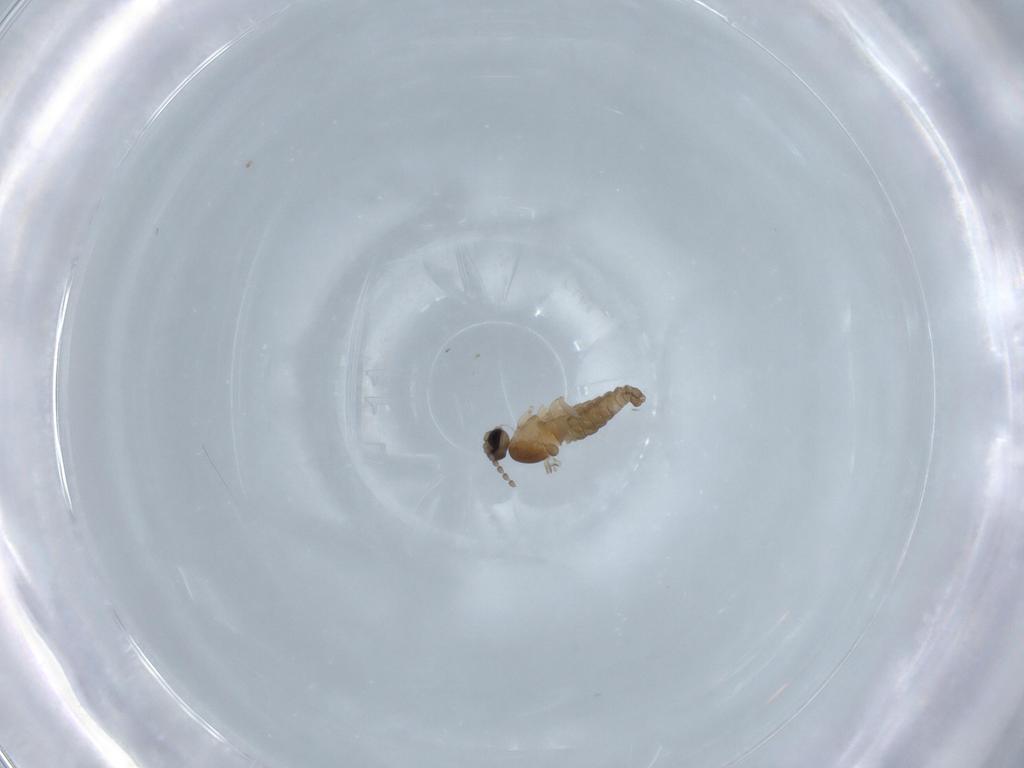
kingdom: Animalia
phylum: Arthropoda
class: Insecta
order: Diptera
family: Cecidomyiidae
